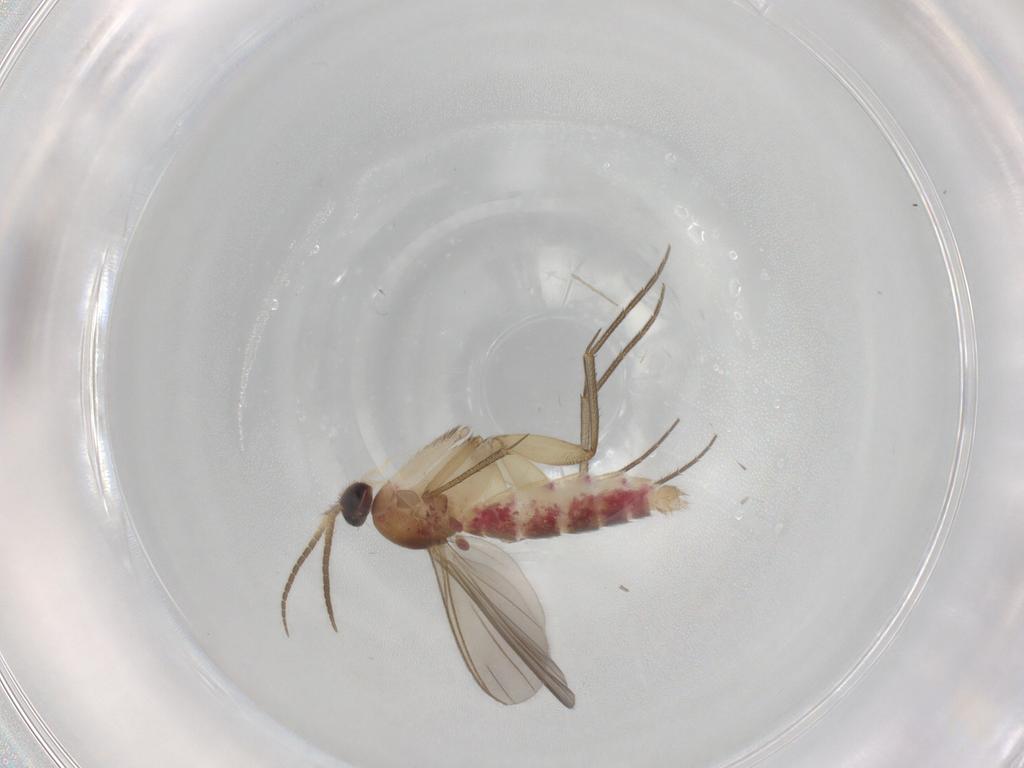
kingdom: Animalia
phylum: Arthropoda
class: Insecta
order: Diptera
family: Mycetophilidae
